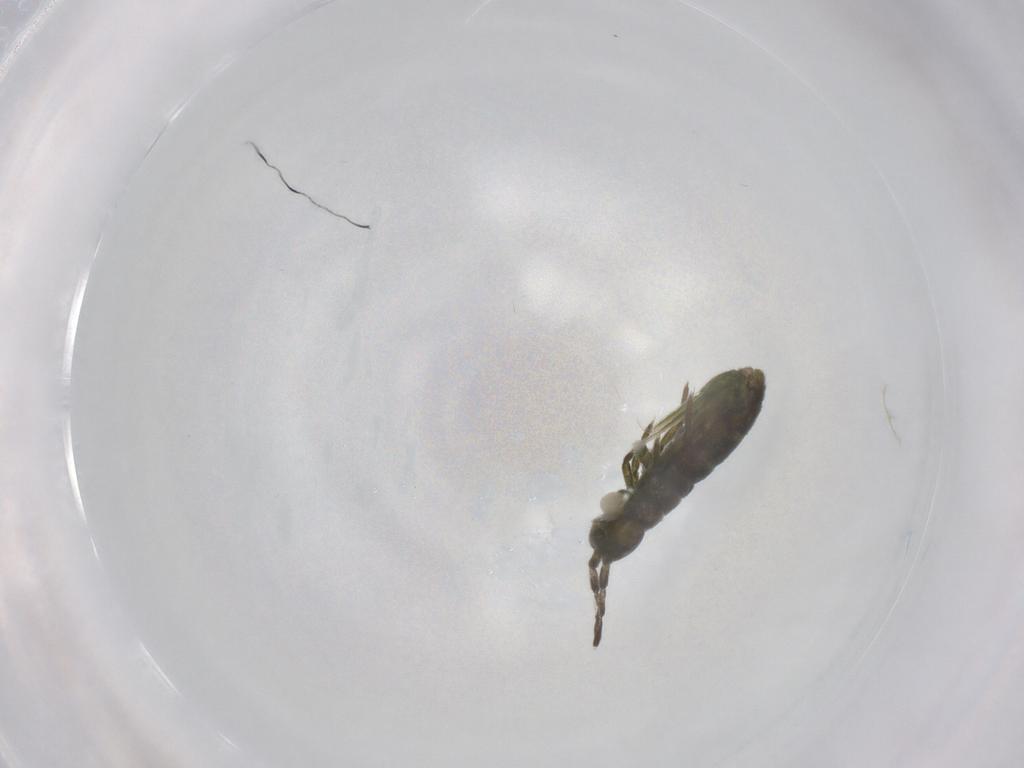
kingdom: Animalia
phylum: Arthropoda
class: Collembola
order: Entomobryomorpha
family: Isotomidae
